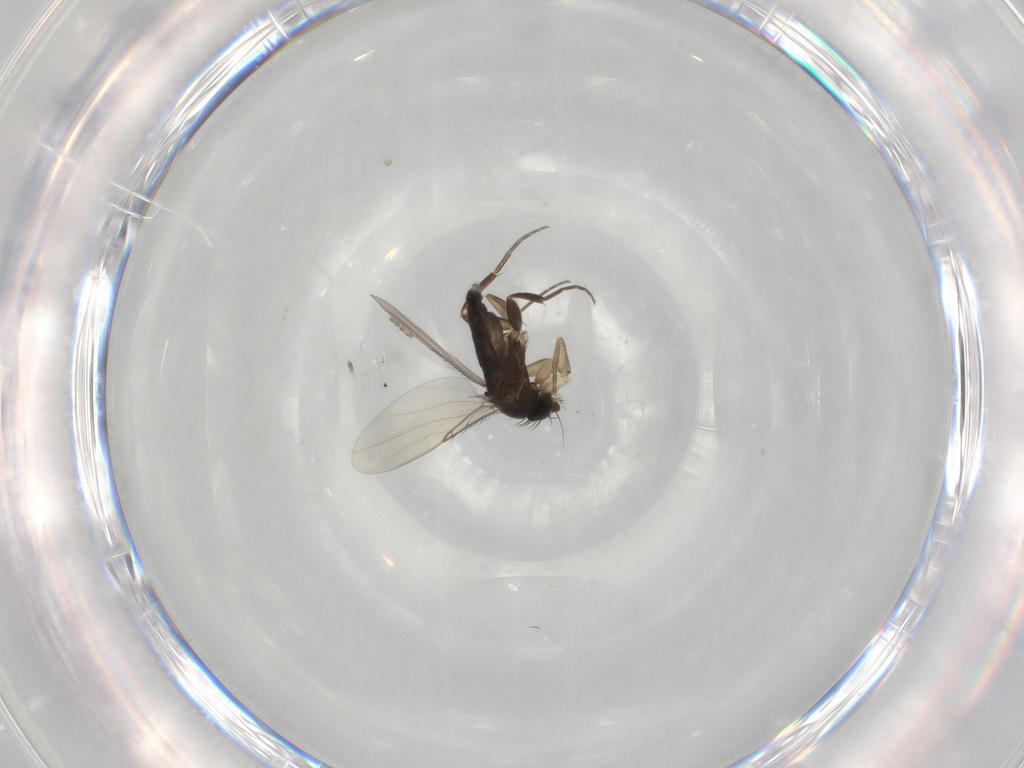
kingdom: Animalia
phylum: Arthropoda
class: Insecta
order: Diptera
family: Phoridae
